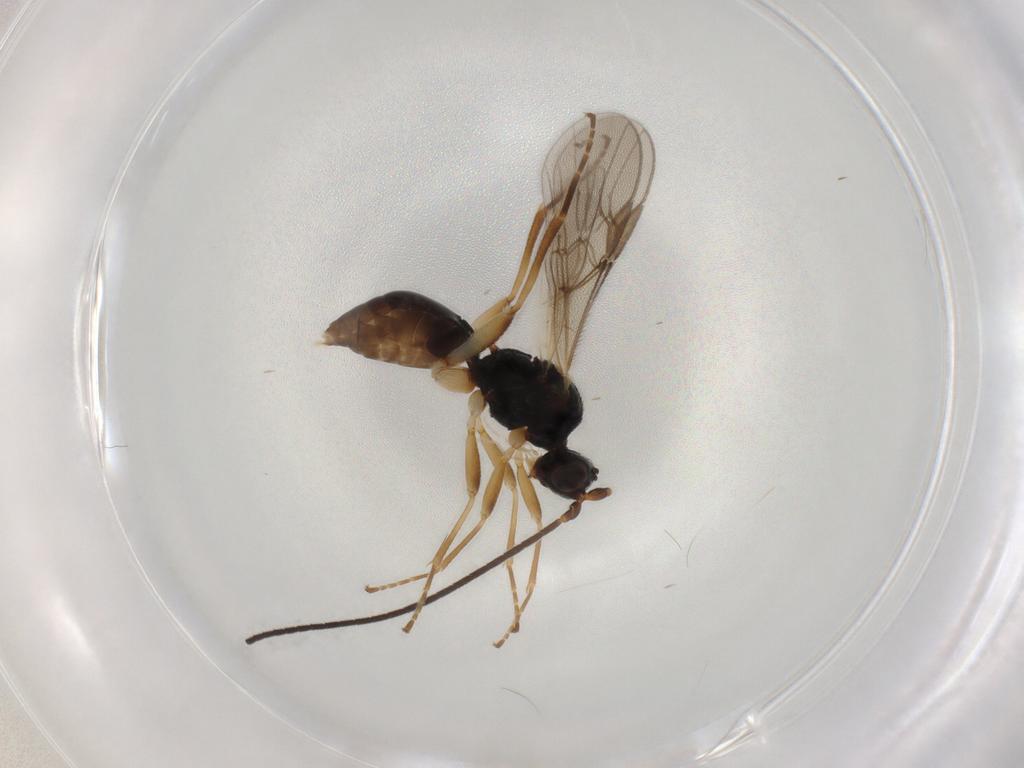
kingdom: Animalia
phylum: Arthropoda
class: Insecta
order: Hymenoptera
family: Braconidae
